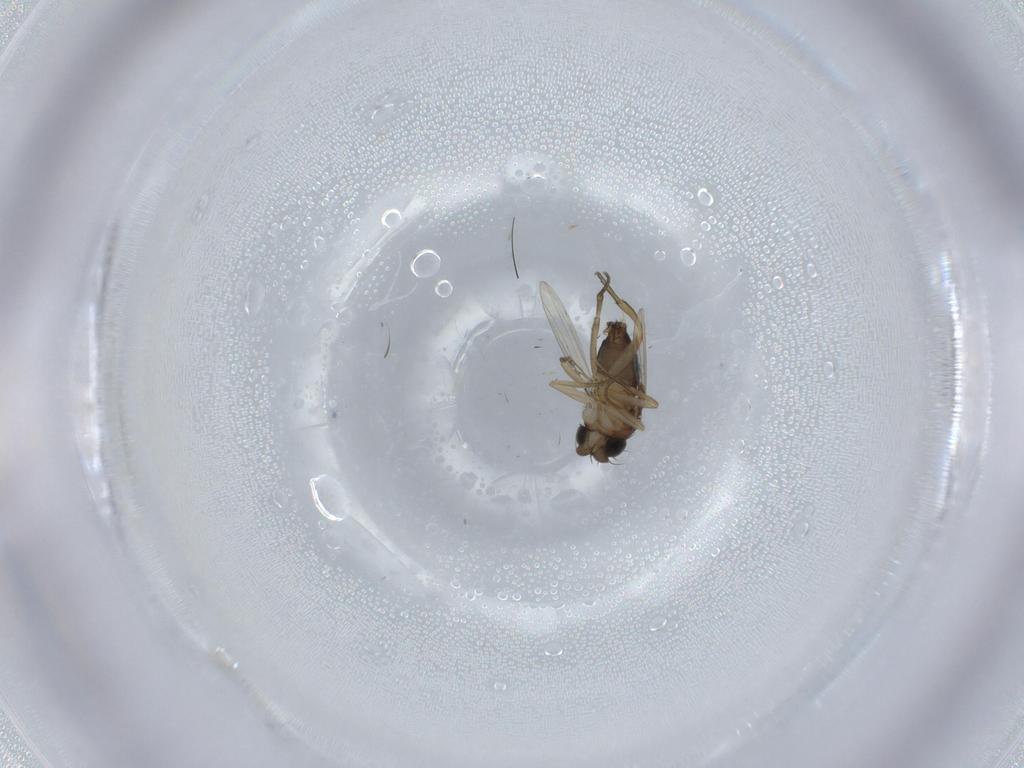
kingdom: Animalia
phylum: Arthropoda
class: Insecta
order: Diptera
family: Phoridae
